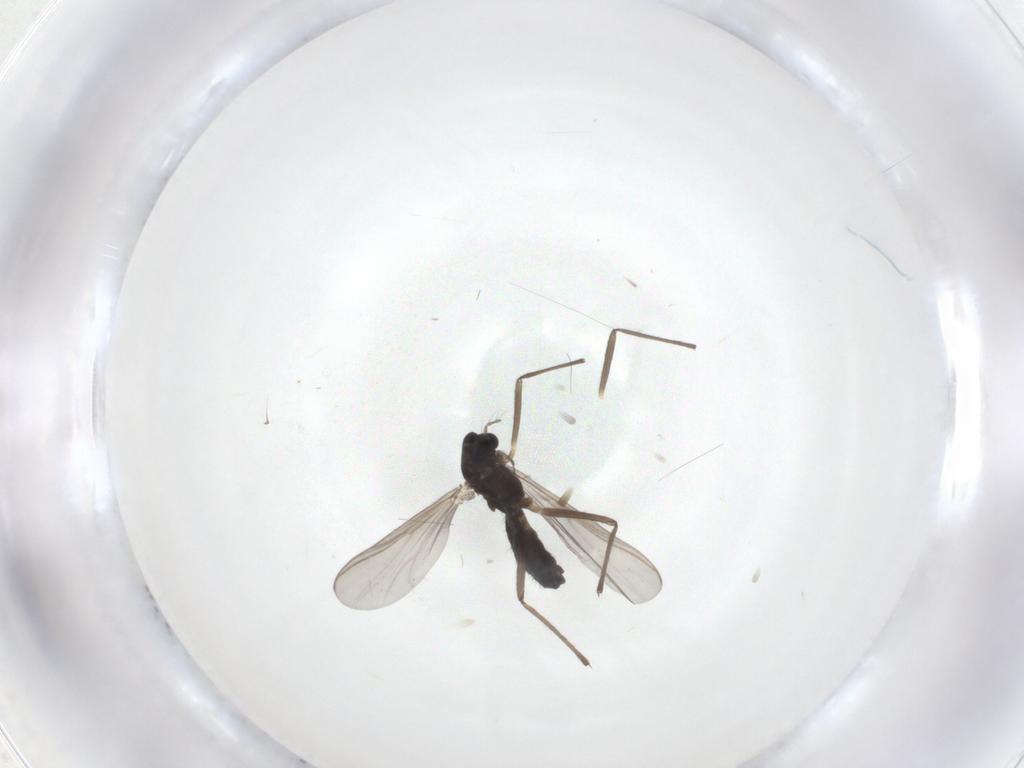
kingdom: Animalia
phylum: Arthropoda
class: Insecta
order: Diptera
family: Chironomidae
